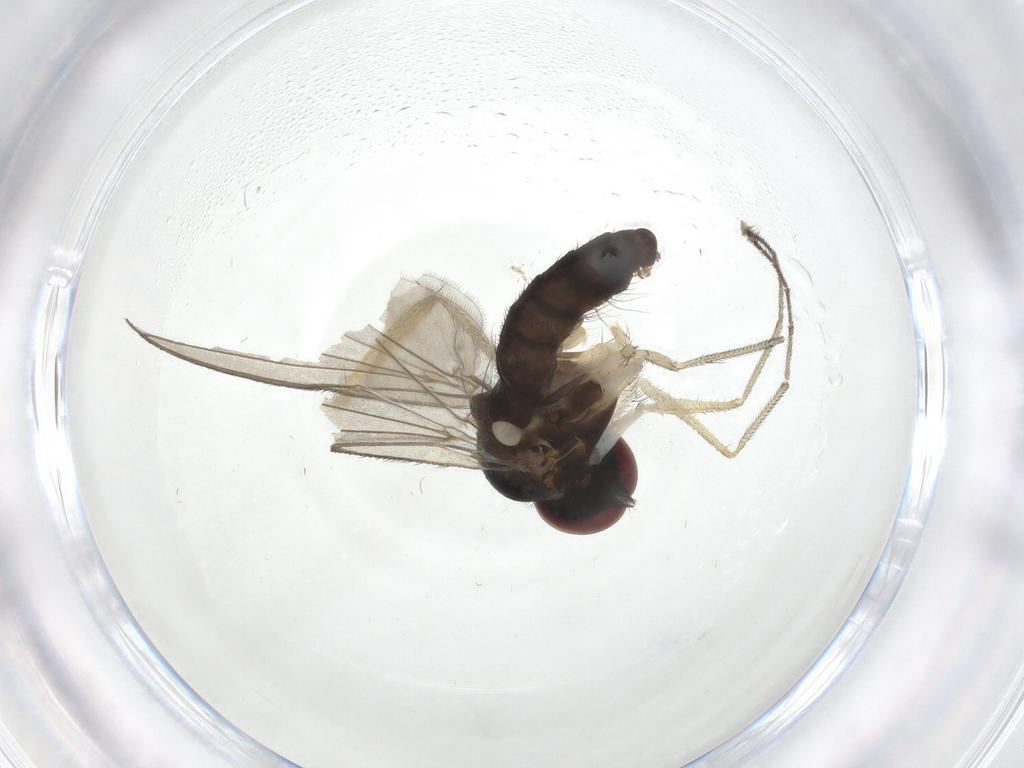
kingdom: Animalia
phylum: Arthropoda
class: Insecta
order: Diptera
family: Dolichopodidae
